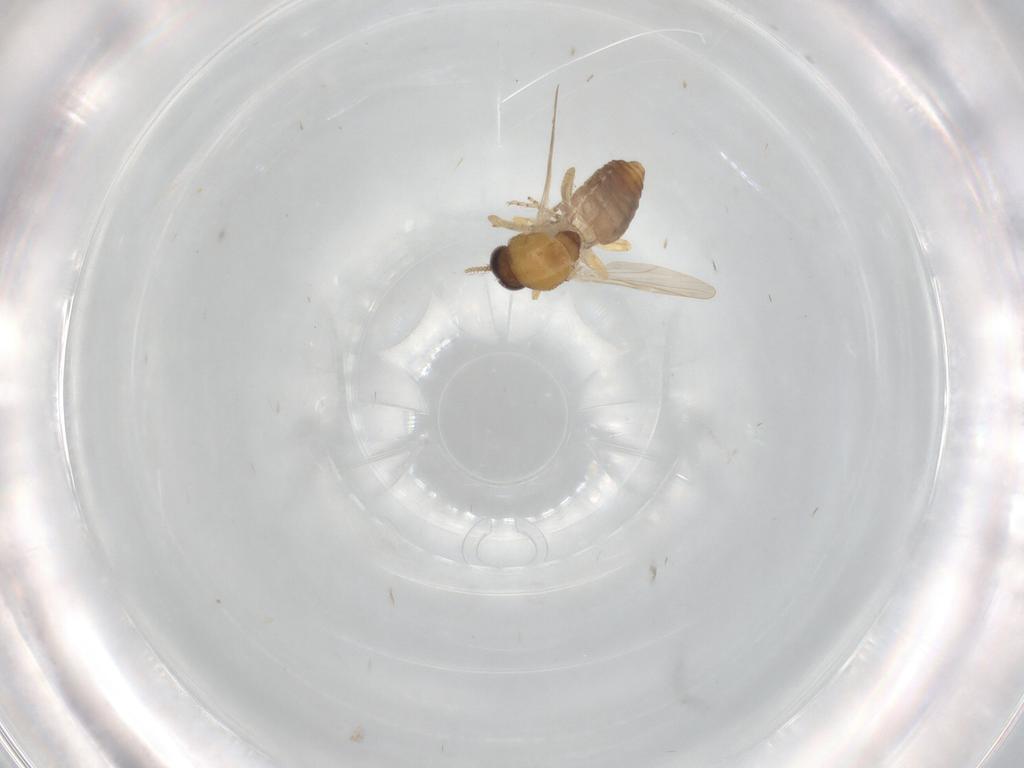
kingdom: Animalia
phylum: Arthropoda
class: Insecta
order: Diptera
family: Ceratopogonidae
